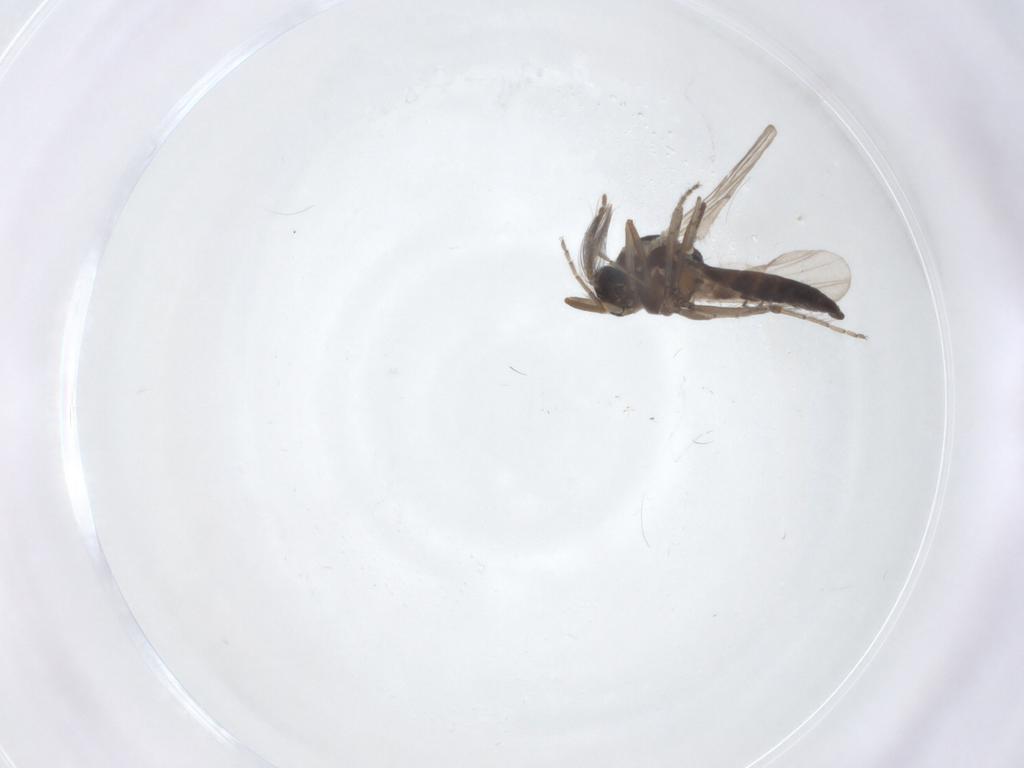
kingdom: Animalia
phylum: Arthropoda
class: Insecta
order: Diptera
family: Ceratopogonidae
